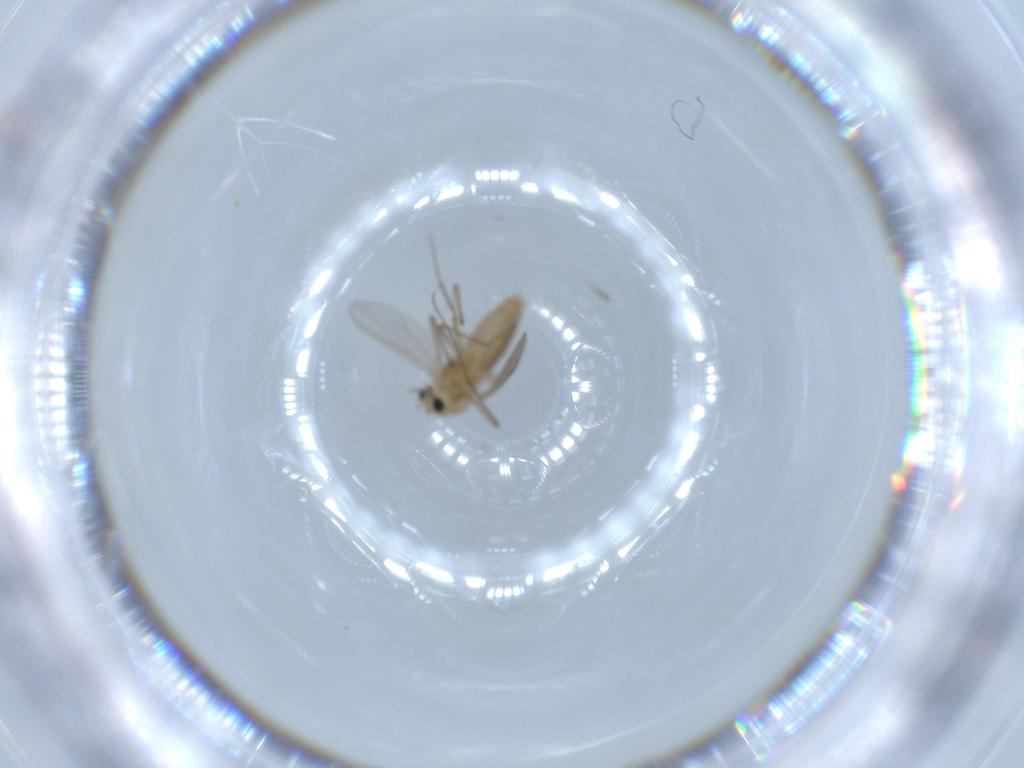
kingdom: Animalia
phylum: Arthropoda
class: Insecta
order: Diptera
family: Chironomidae
